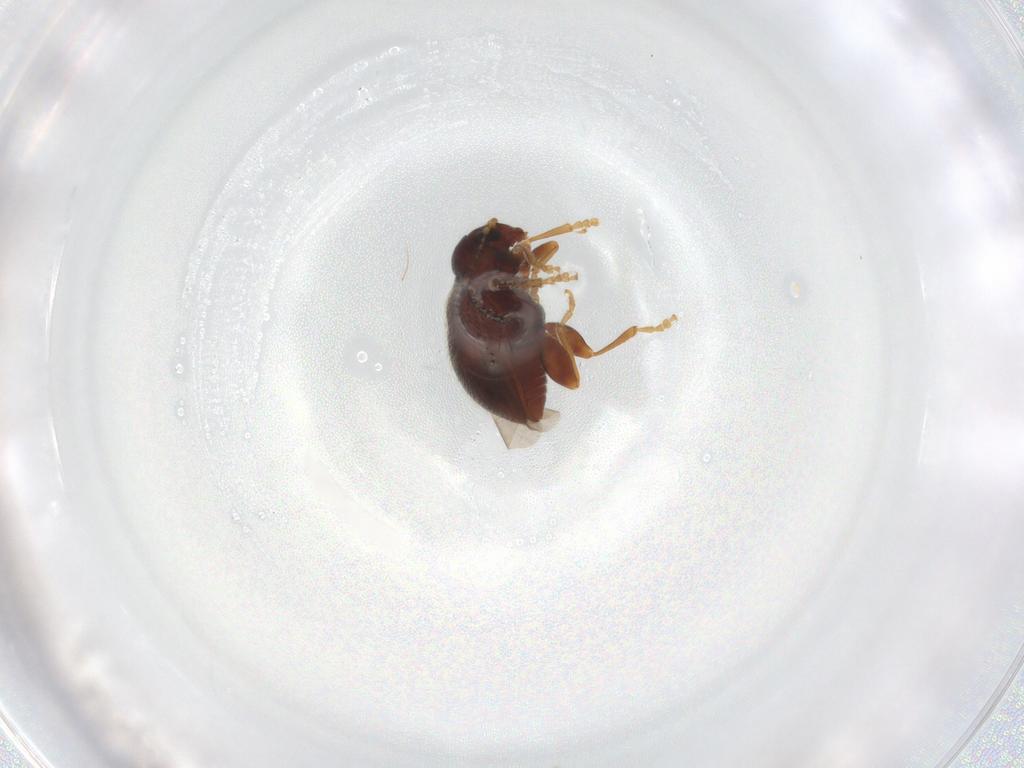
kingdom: Animalia
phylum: Arthropoda
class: Insecta
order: Coleoptera
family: Chrysomelidae
